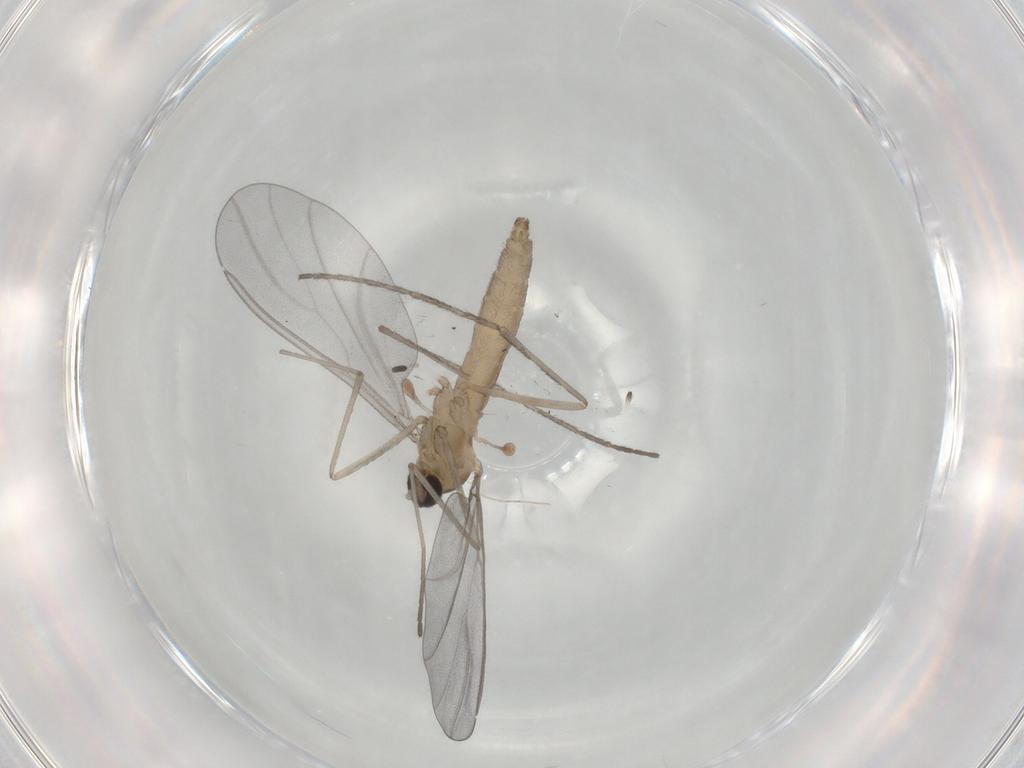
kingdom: Animalia
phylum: Arthropoda
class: Insecta
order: Diptera
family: Cecidomyiidae
